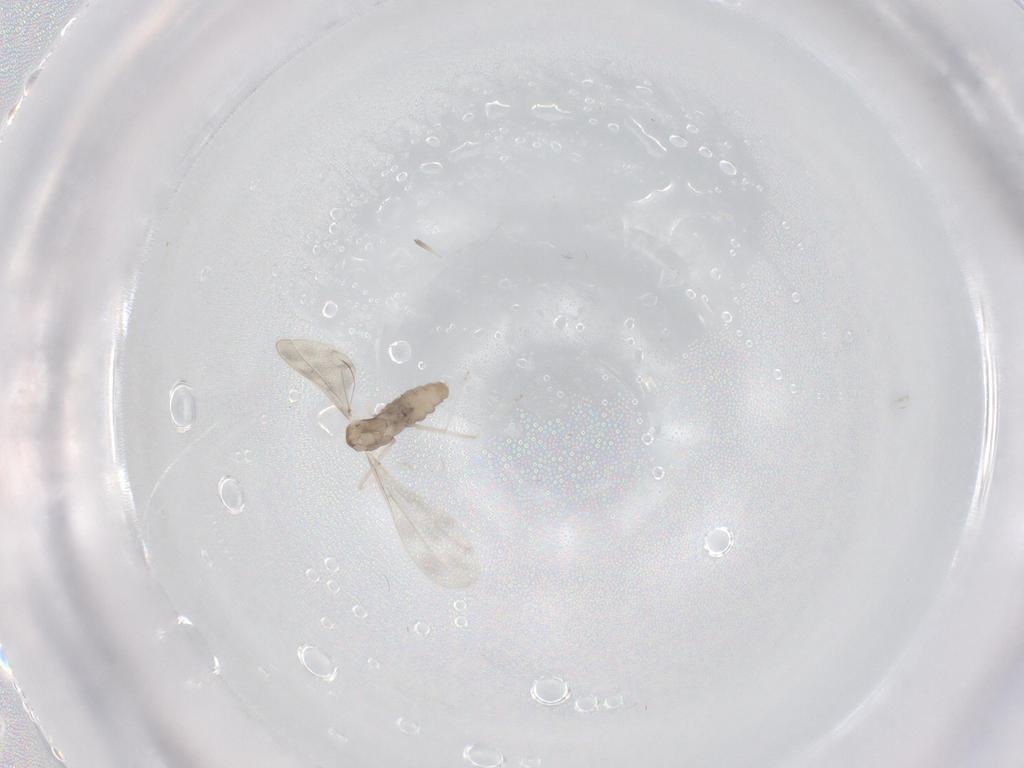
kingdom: Animalia
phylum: Arthropoda
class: Insecta
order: Diptera
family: Cecidomyiidae
